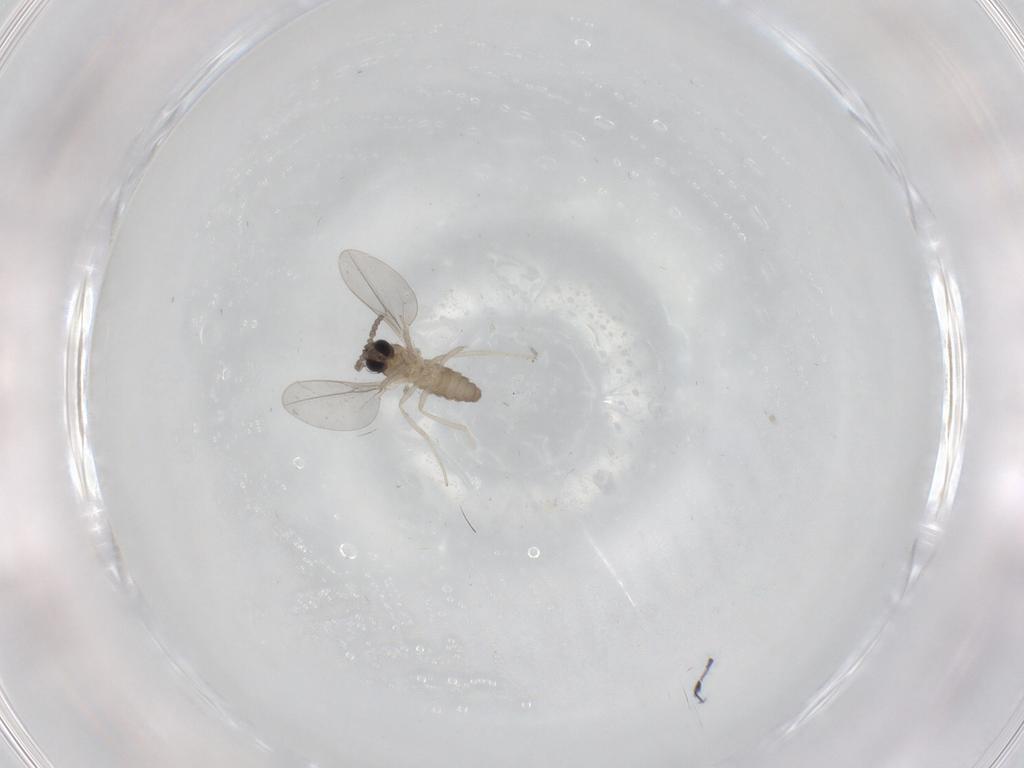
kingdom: Animalia
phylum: Arthropoda
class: Insecta
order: Diptera
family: Cecidomyiidae
